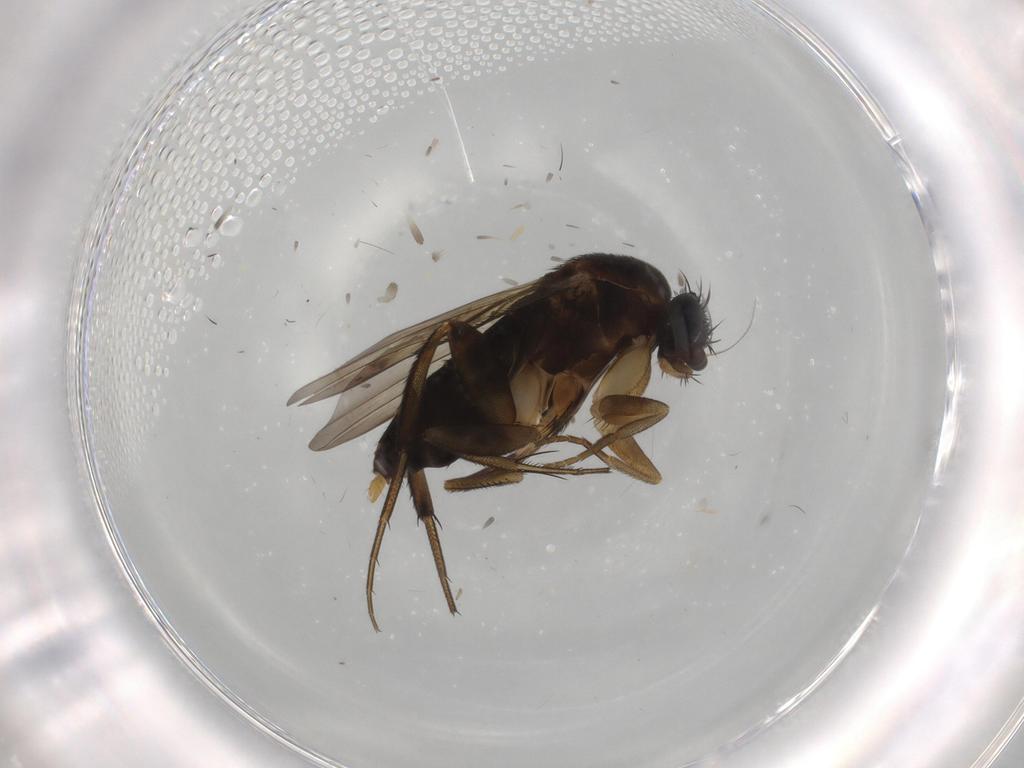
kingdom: Animalia
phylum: Arthropoda
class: Insecta
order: Diptera
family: Phoridae
